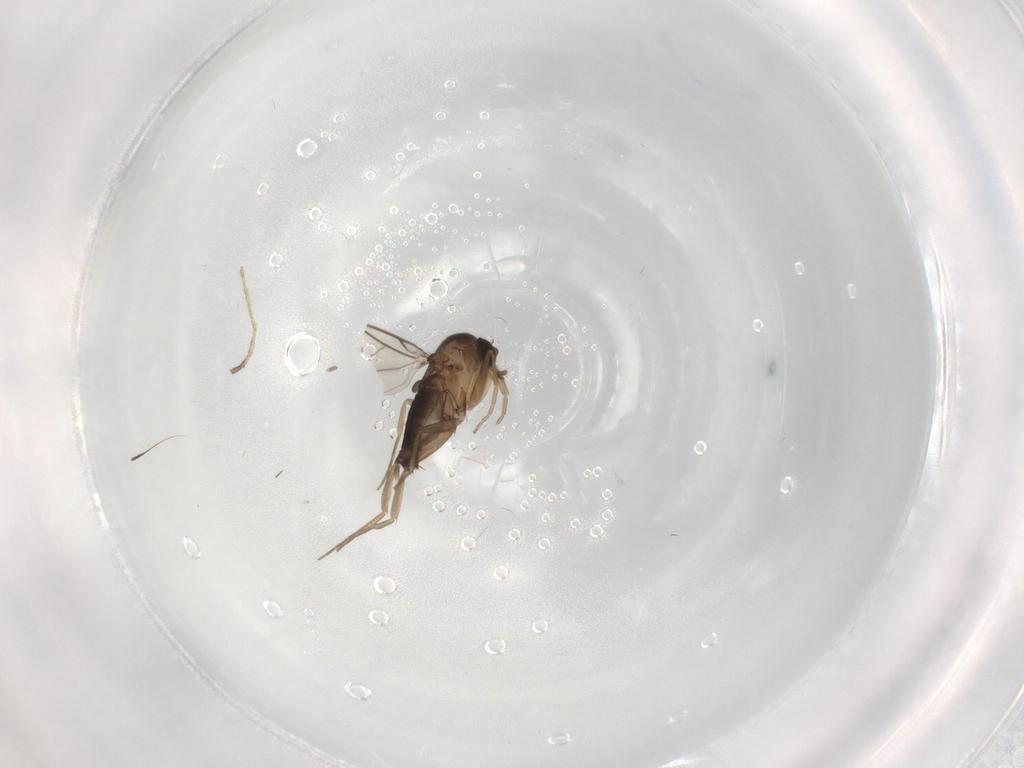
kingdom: Animalia
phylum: Arthropoda
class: Insecta
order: Diptera
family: Phoridae
